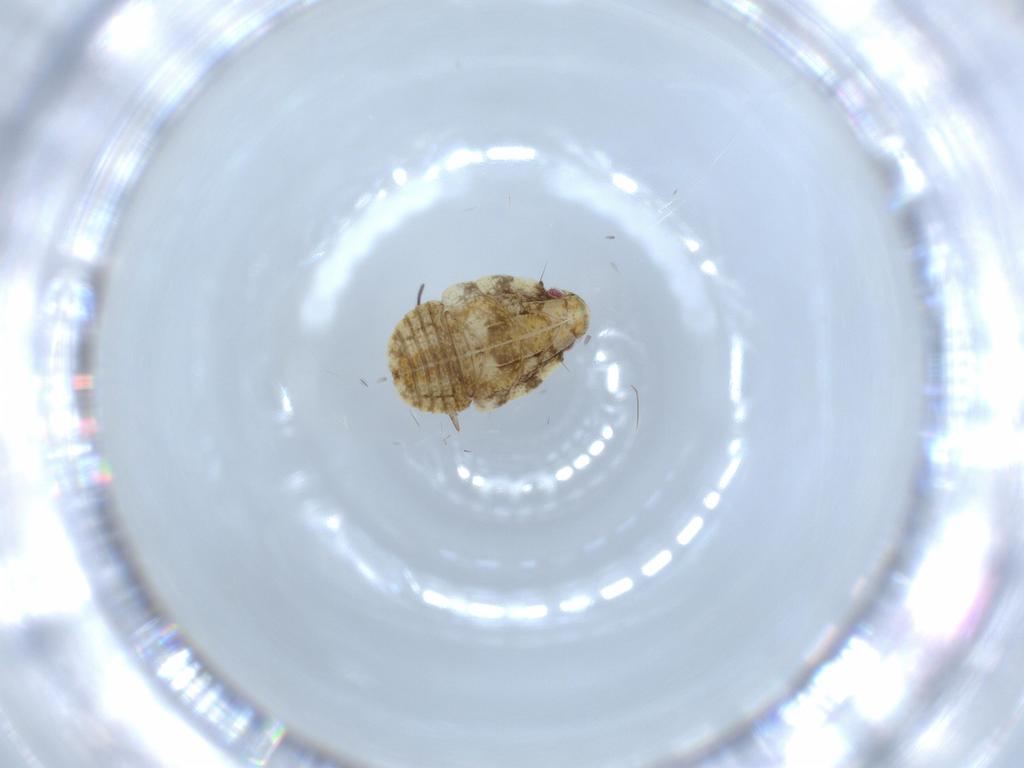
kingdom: Animalia
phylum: Arthropoda
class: Insecta
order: Hemiptera
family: Flatidae
